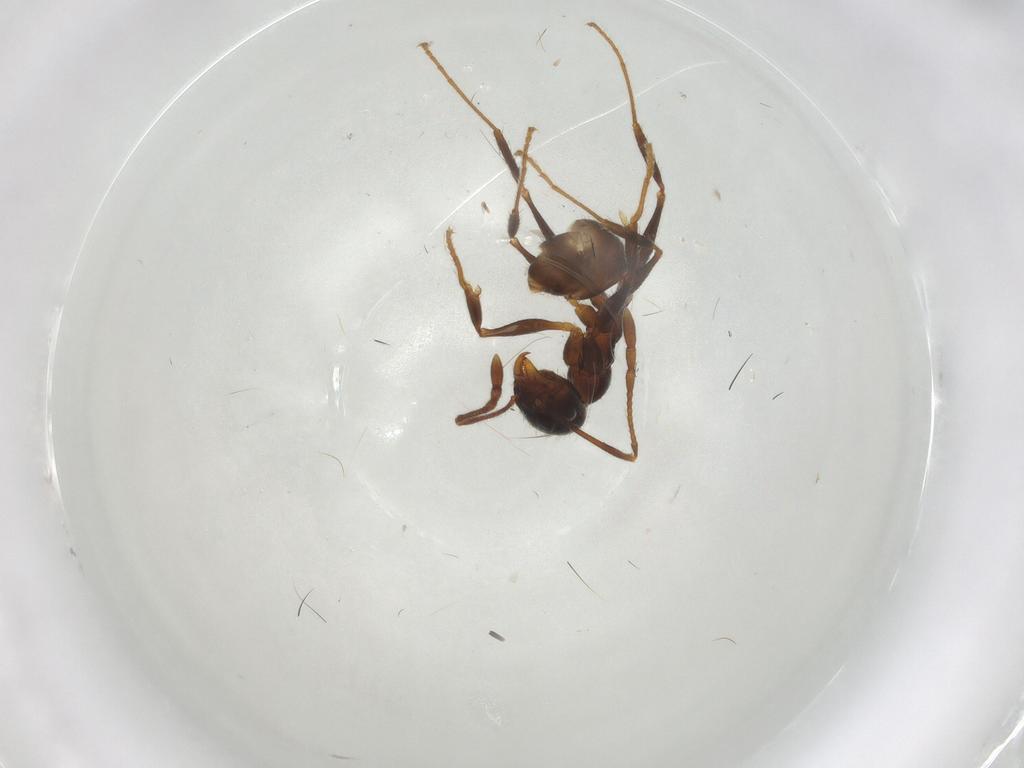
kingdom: Animalia
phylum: Arthropoda
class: Insecta
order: Hymenoptera
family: Formicidae
